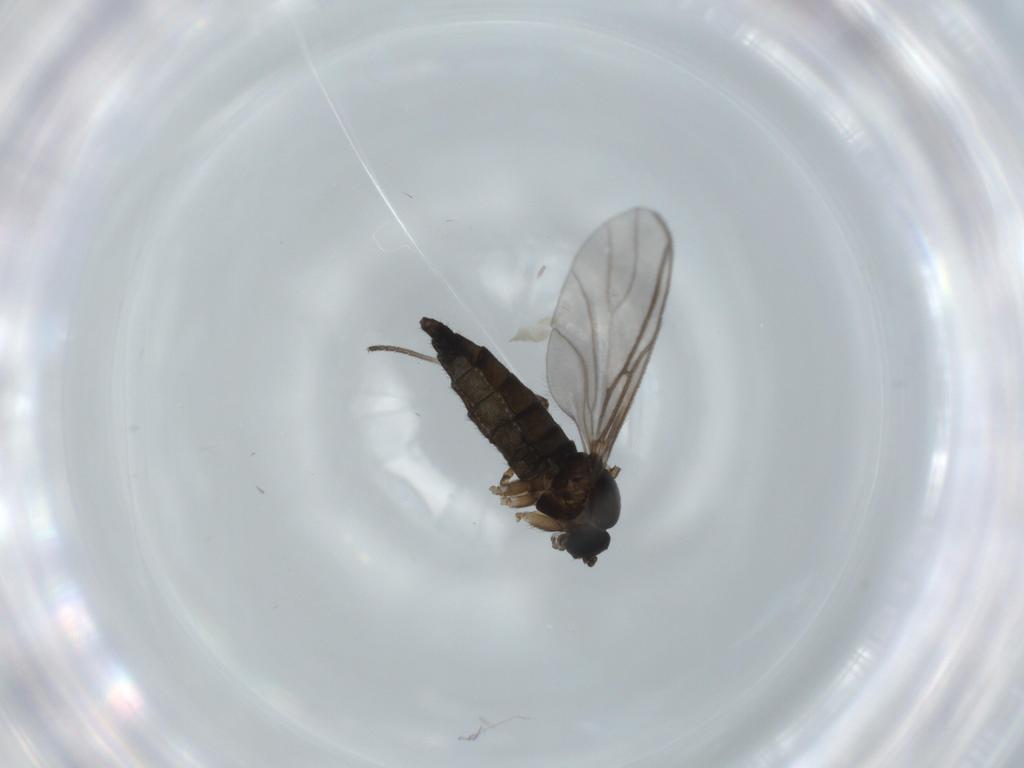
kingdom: Animalia
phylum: Arthropoda
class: Insecta
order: Diptera
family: Sciaridae
